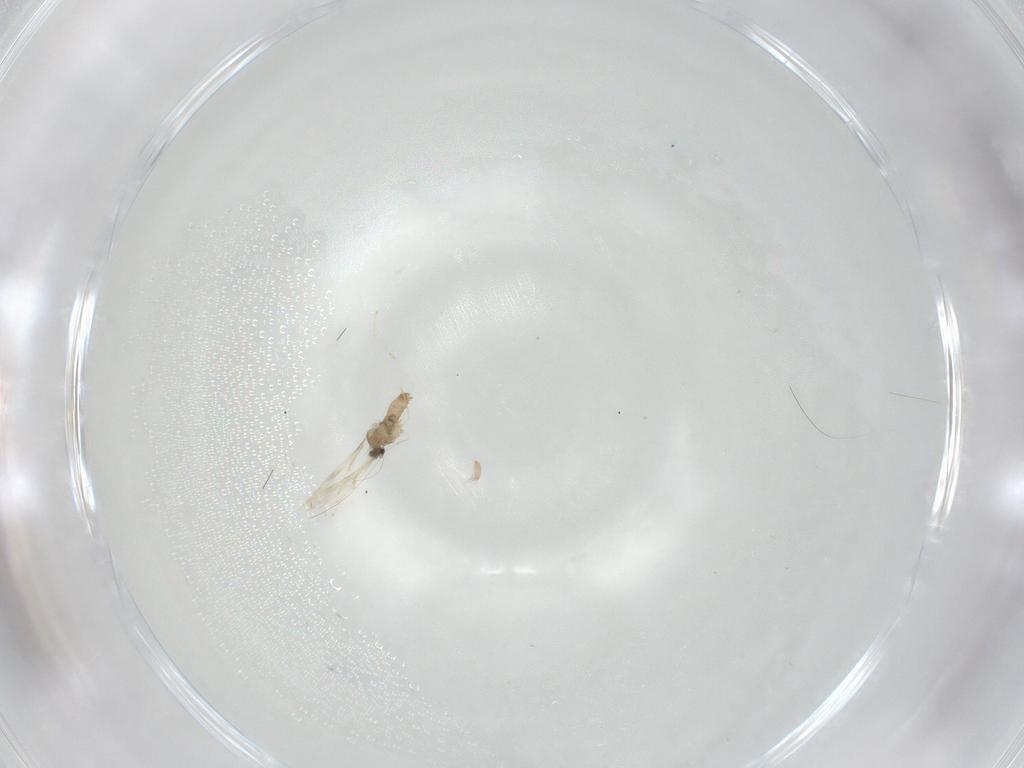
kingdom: Animalia
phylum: Arthropoda
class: Insecta
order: Diptera
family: Cecidomyiidae
